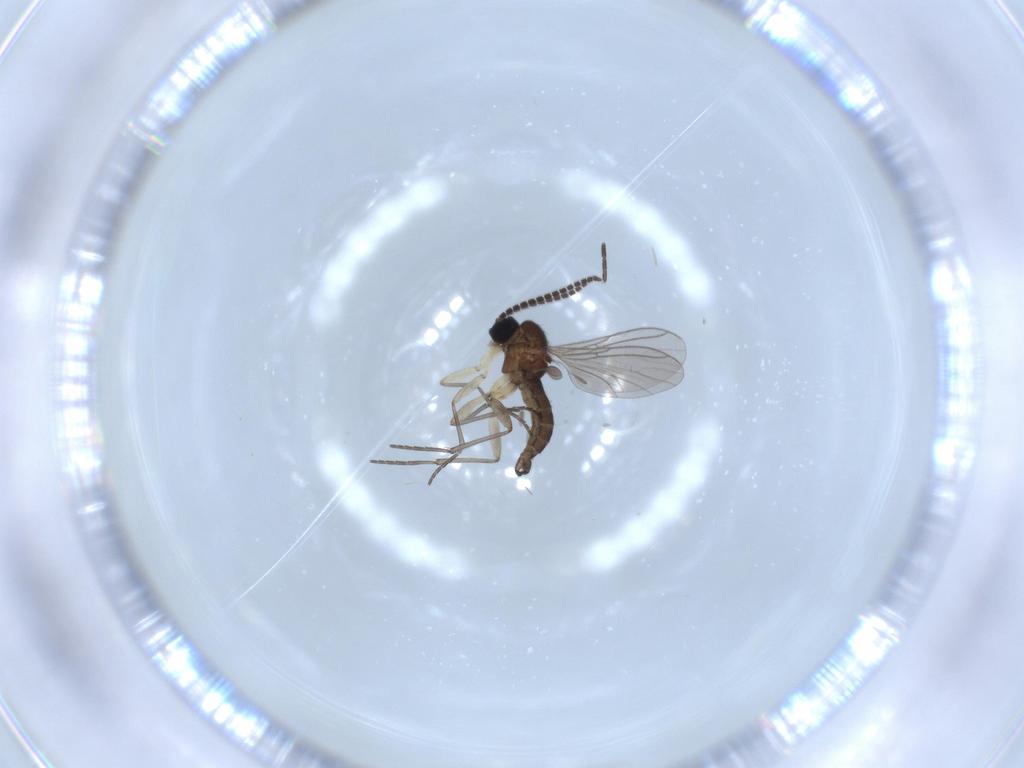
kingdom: Animalia
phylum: Arthropoda
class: Insecta
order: Diptera
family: Sciaridae
